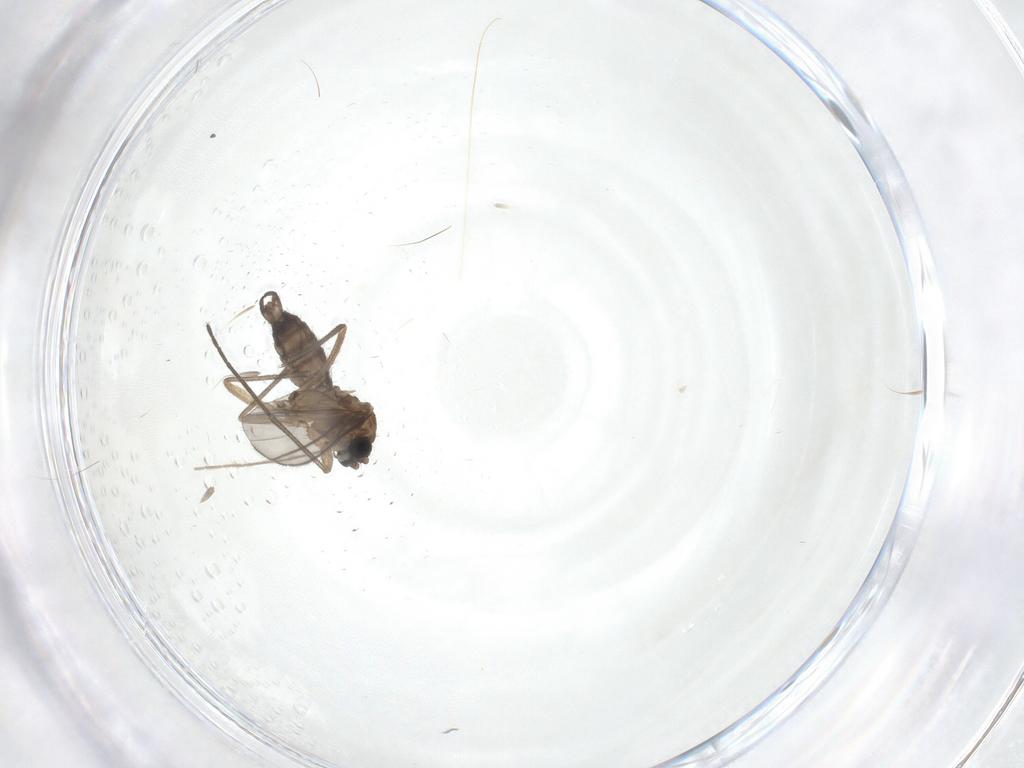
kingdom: Animalia
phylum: Arthropoda
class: Insecta
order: Diptera
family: Sciaridae
